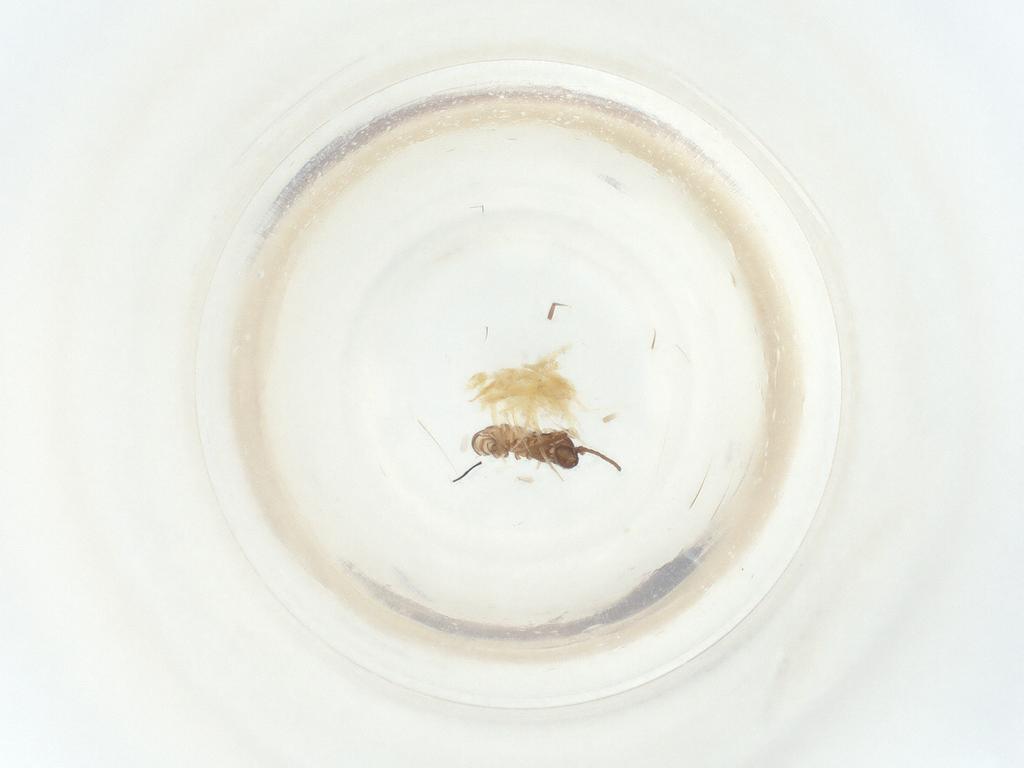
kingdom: Animalia
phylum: Arthropoda
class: Insecta
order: Diptera
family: Sciaridae
